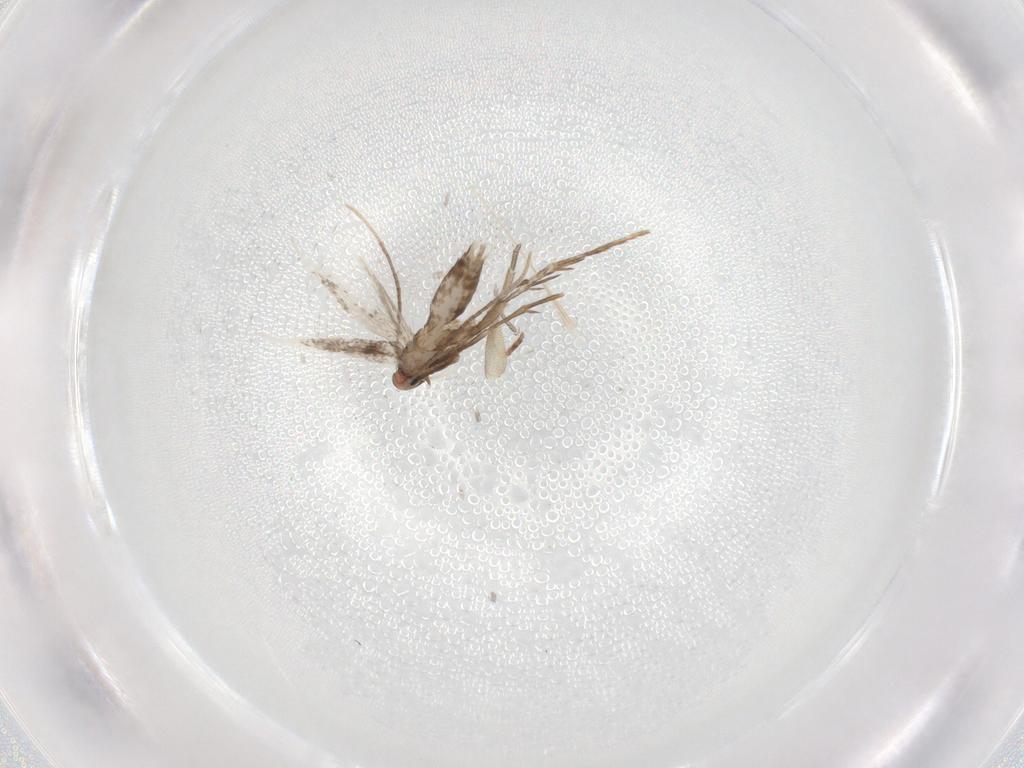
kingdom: Animalia
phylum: Arthropoda
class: Insecta
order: Lepidoptera
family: Gracillariidae
